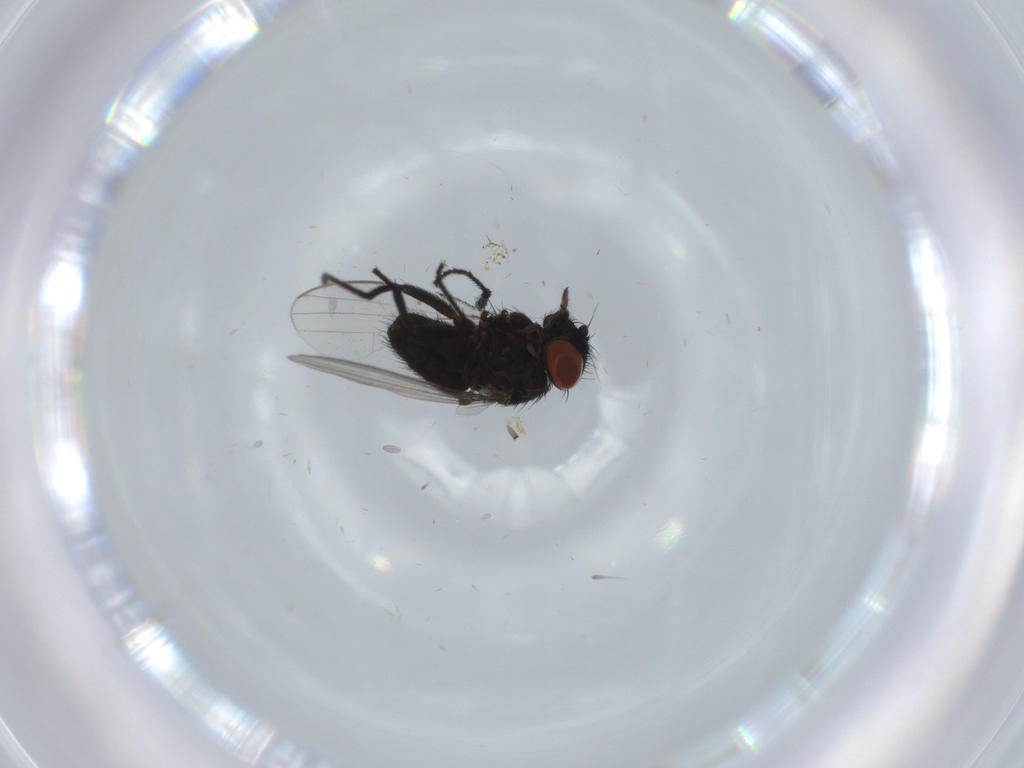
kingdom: Animalia
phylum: Arthropoda
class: Insecta
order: Diptera
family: Milichiidae
